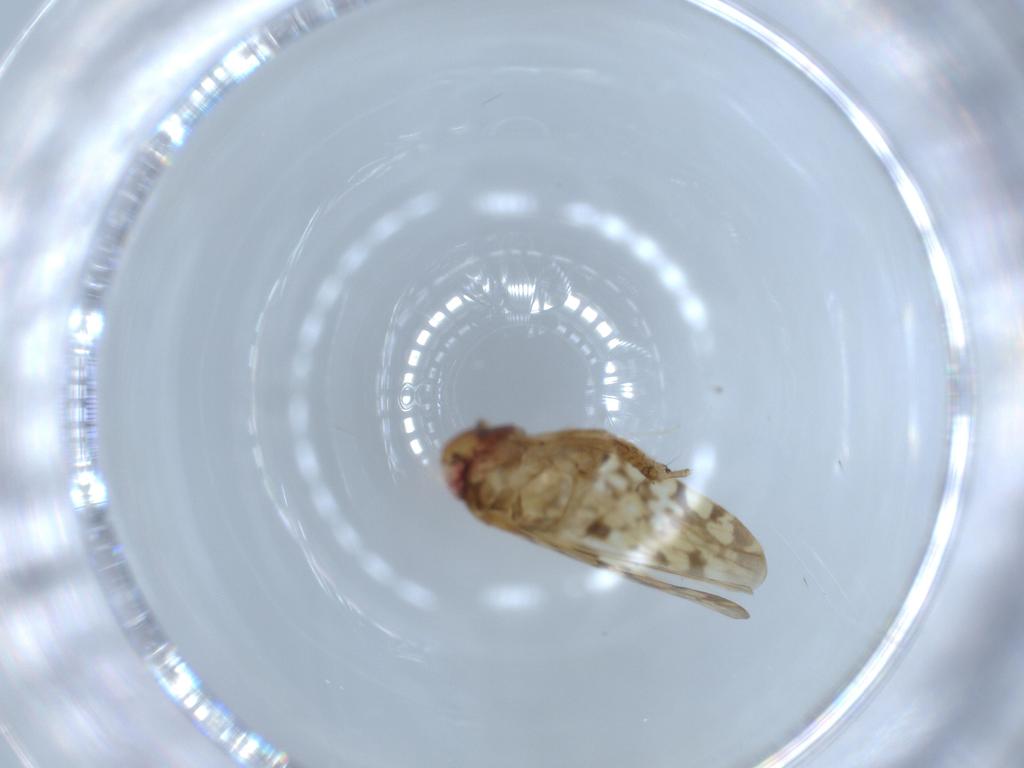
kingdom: Animalia
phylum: Arthropoda
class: Insecta
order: Hemiptera
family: Cicadellidae
